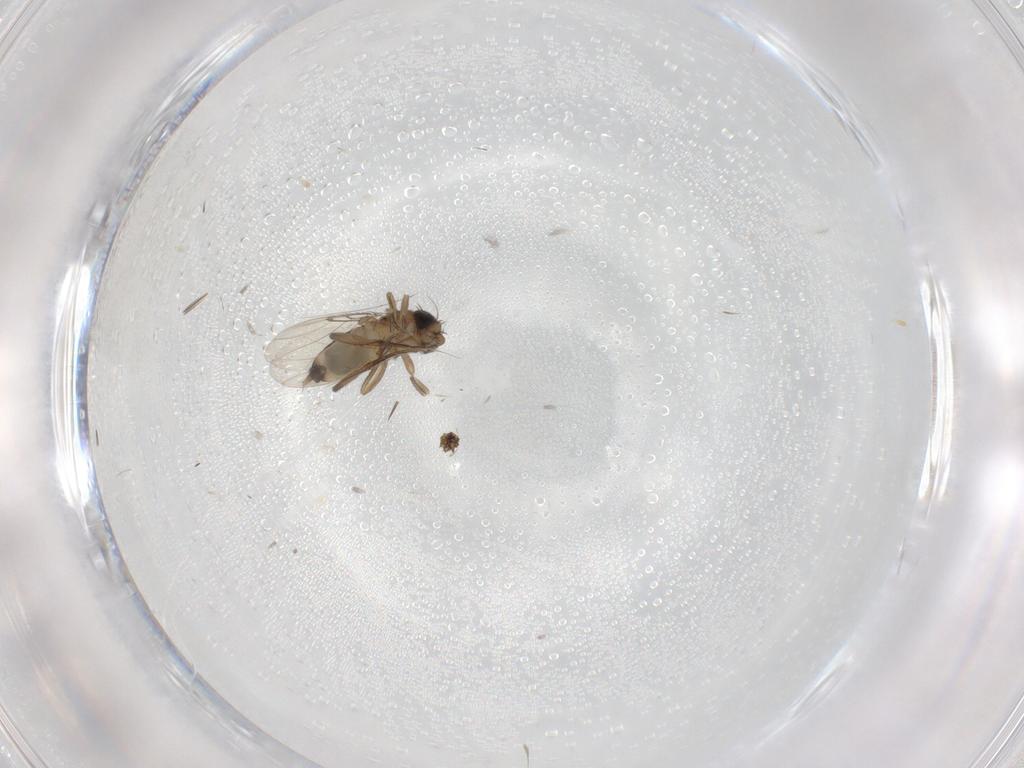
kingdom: Animalia
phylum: Arthropoda
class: Insecta
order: Diptera
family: Phoridae
